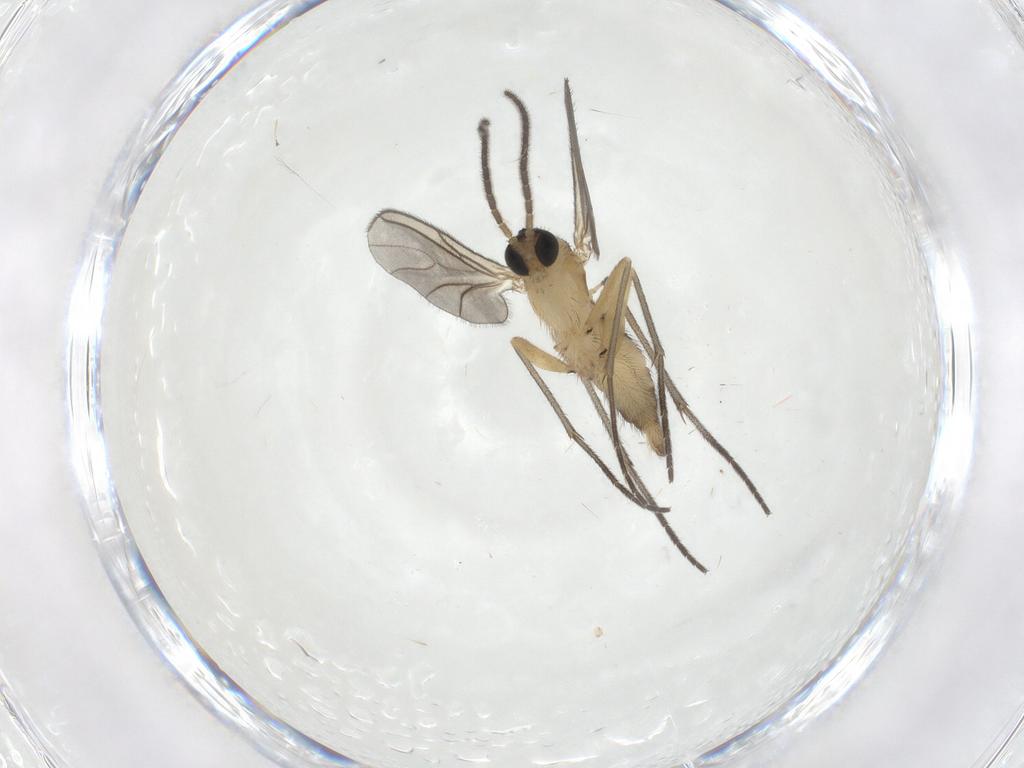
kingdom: Animalia
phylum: Arthropoda
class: Insecta
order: Diptera
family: Sciaridae
